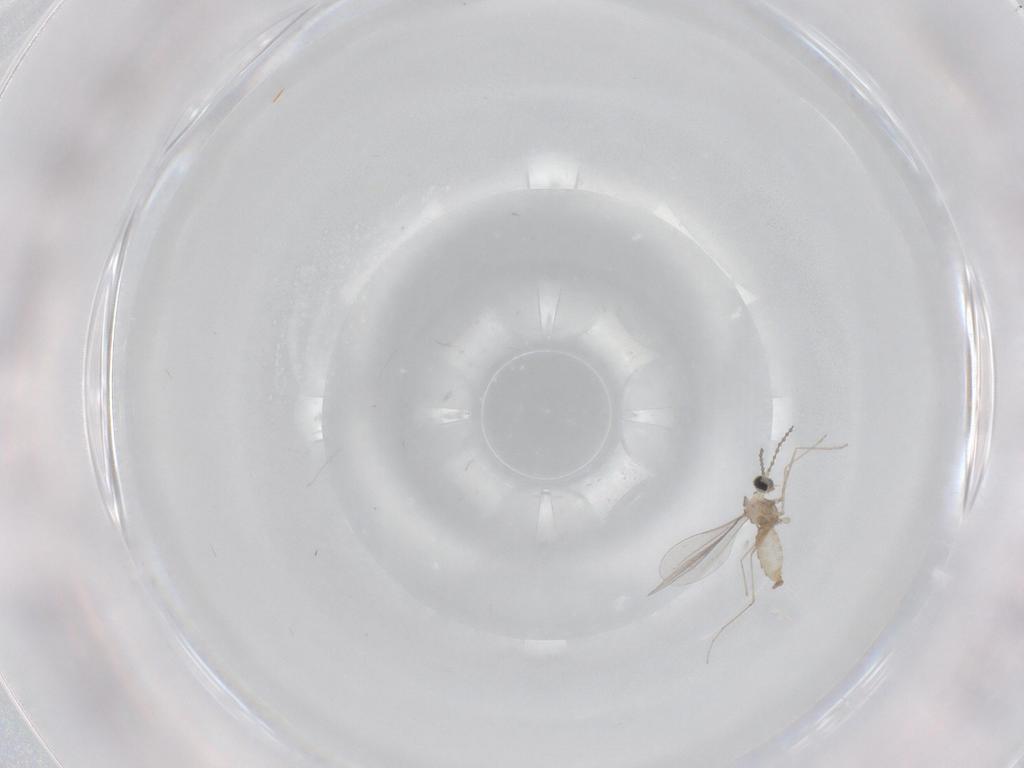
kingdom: Animalia
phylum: Arthropoda
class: Insecta
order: Diptera
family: Cecidomyiidae
